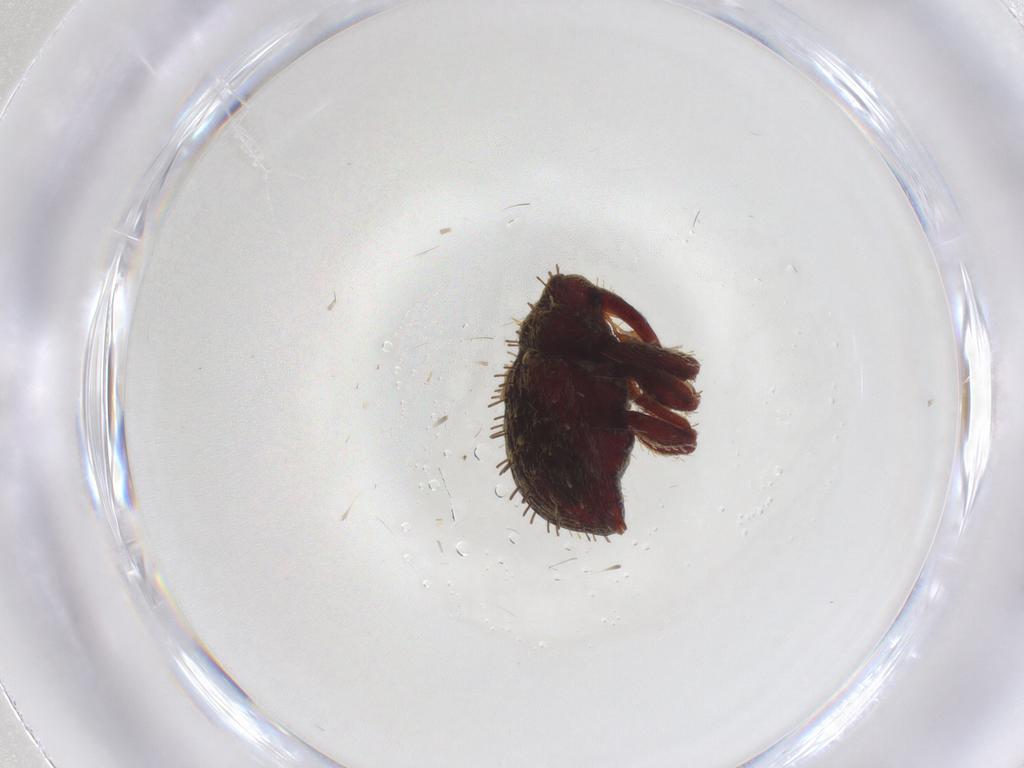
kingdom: Animalia
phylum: Arthropoda
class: Insecta
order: Coleoptera
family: Curculionidae
